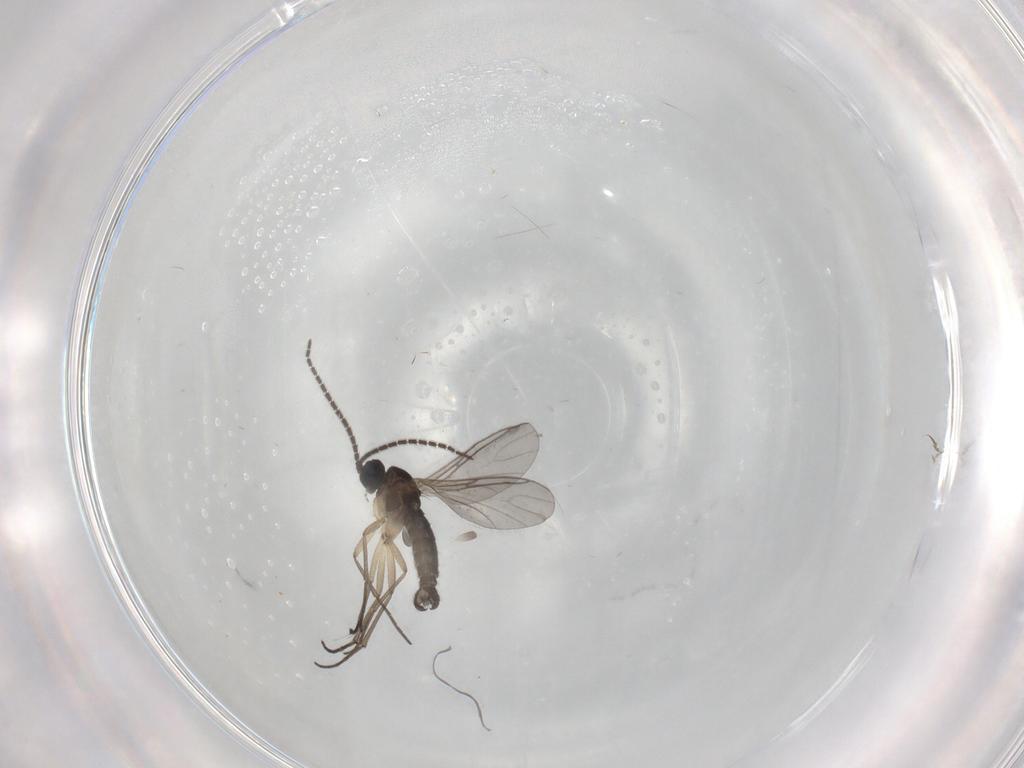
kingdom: Animalia
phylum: Arthropoda
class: Insecta
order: Diptera
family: Sciaridae
